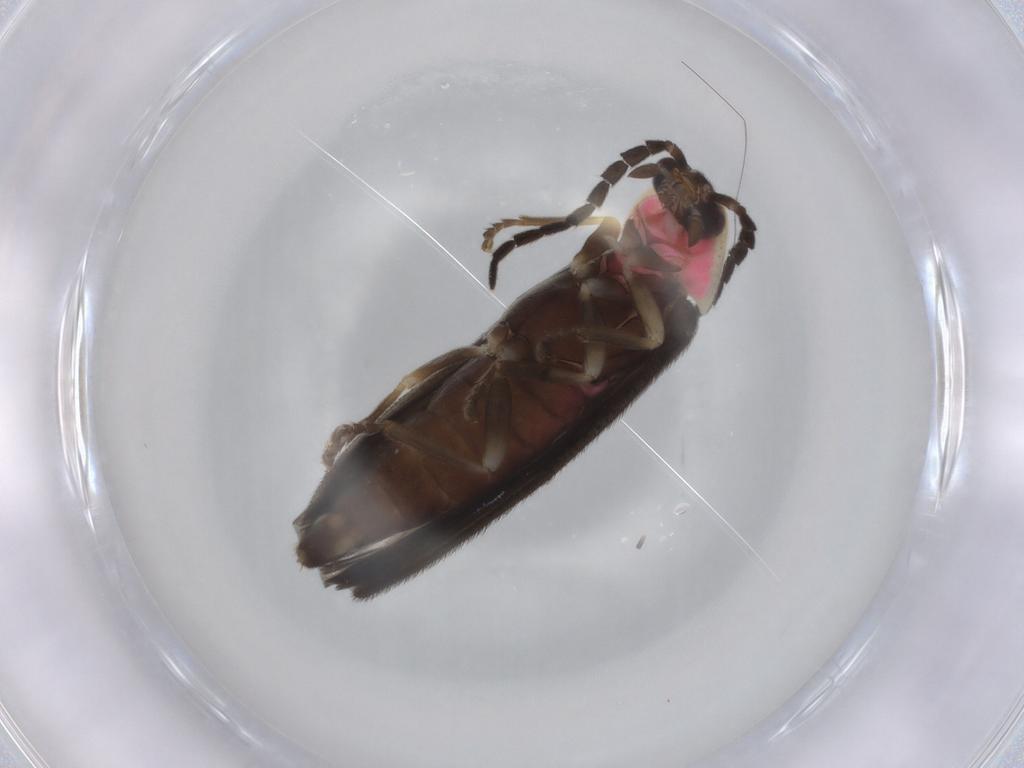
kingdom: Animalia
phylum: Arthropoda
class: Insecta
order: Coleoptera
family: Lampyridae
